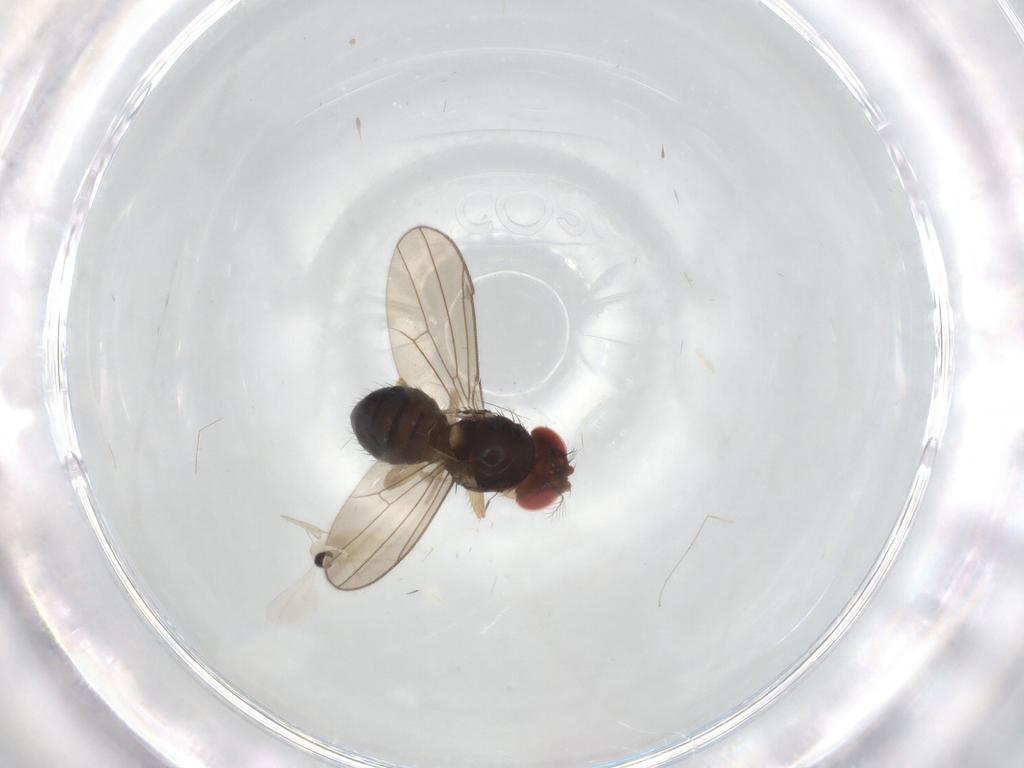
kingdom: Animalia
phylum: Arthropoda
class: Insecta
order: Diptera
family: Cecidomyiidae
